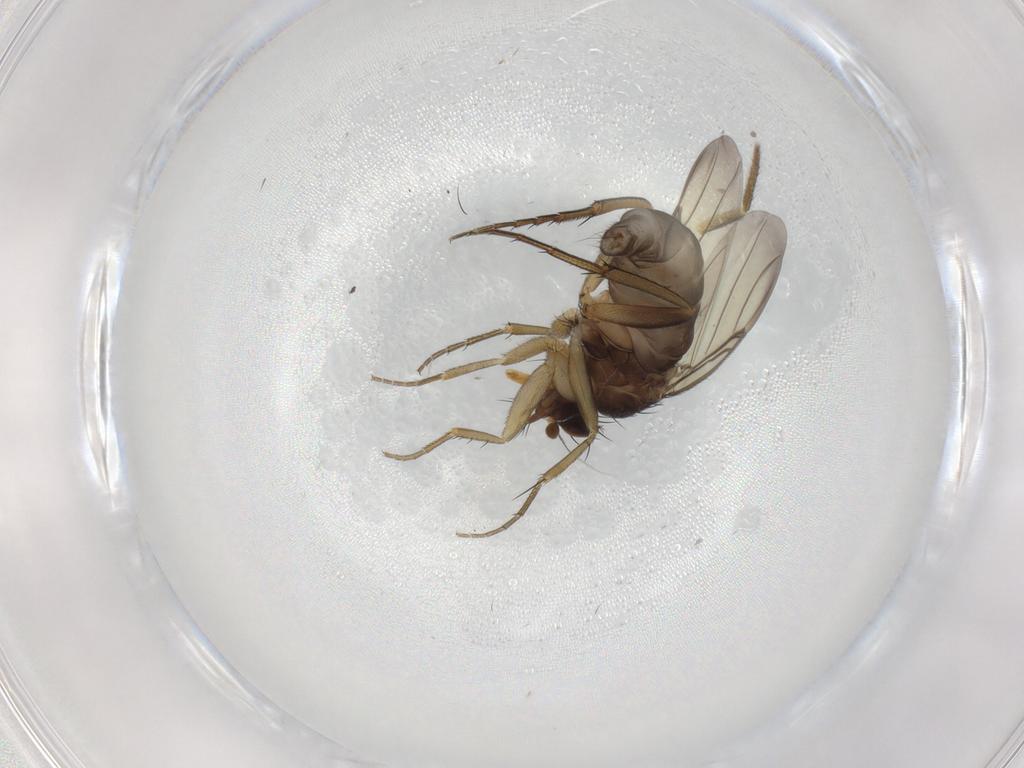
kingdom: Animalia
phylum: Arthropoda
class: Insecta
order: Diptera
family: Phoridae
